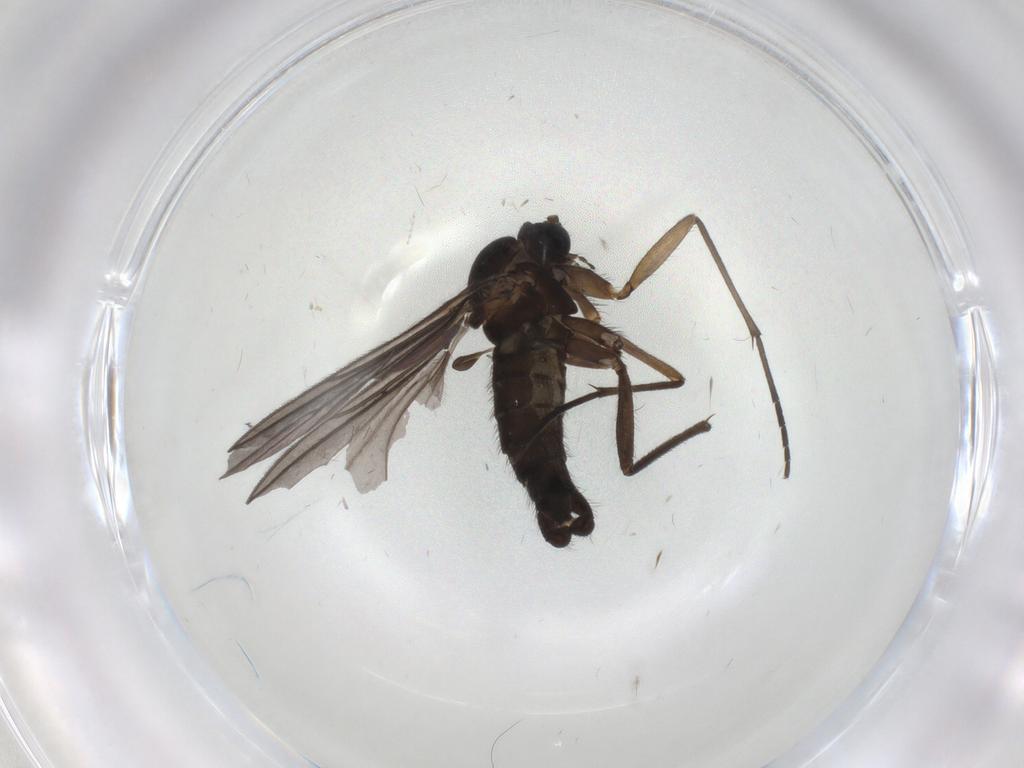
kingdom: Animalia
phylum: Arthropoda
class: Insecta
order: Diptera
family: Sciaridae
